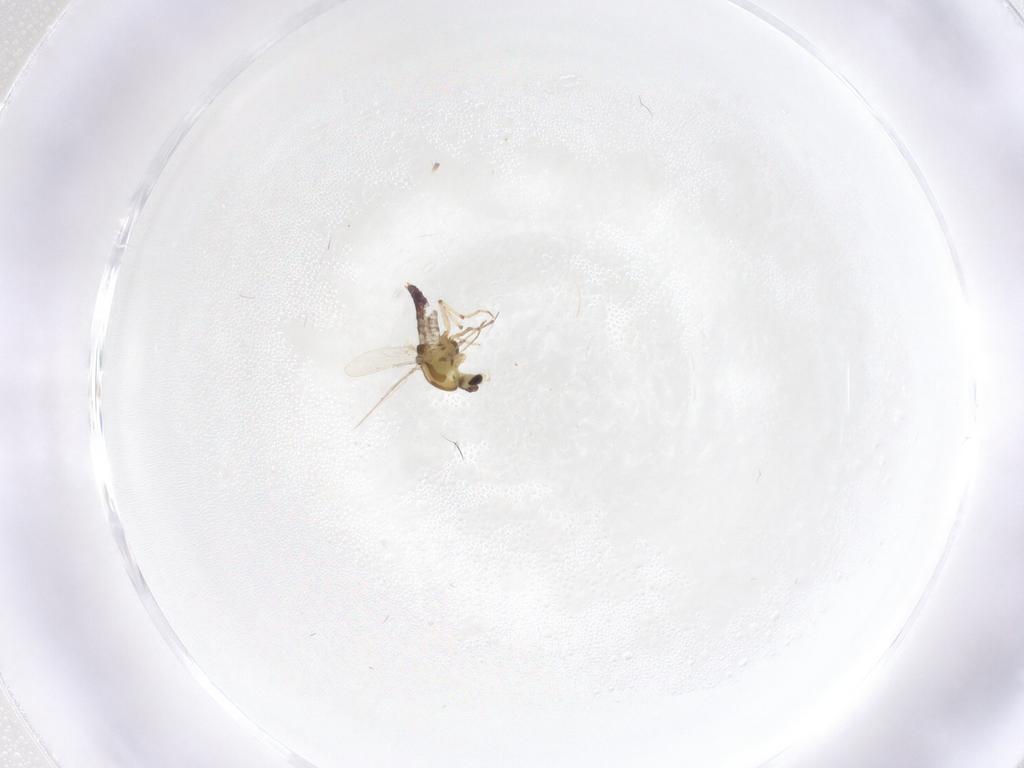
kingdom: Animalia
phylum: Arthropoda
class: Insecta
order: Diptera
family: Chironomidae
